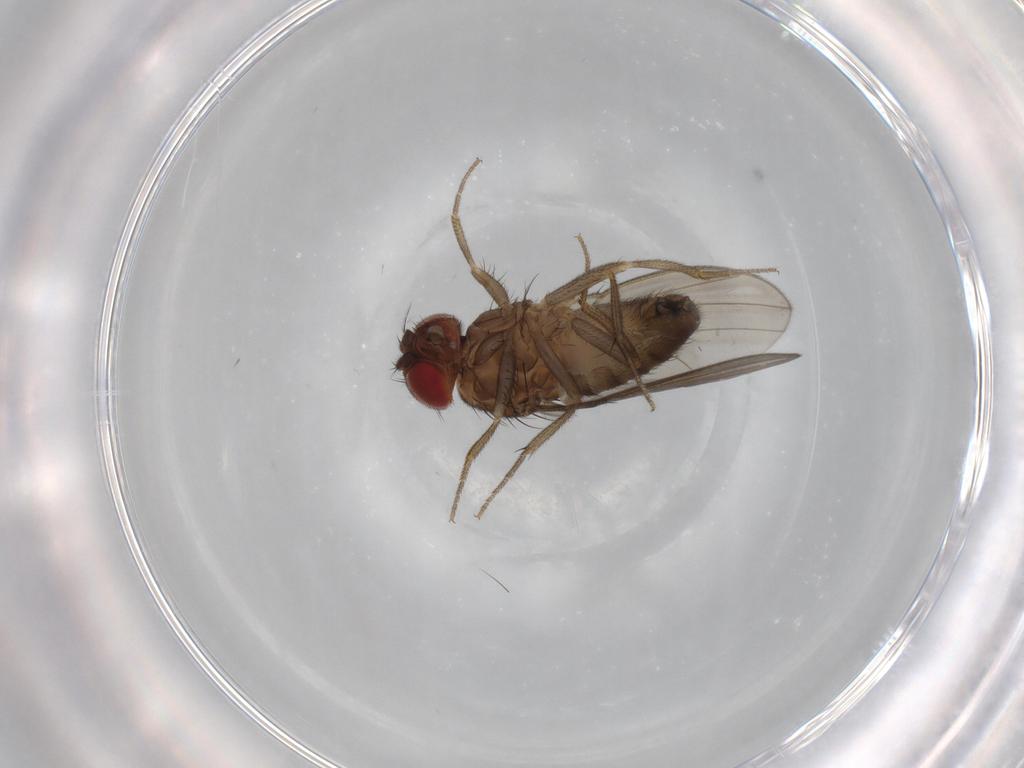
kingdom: Animalia
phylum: Arthropoda
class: Insecta
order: Diptera
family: Drosophilidae
